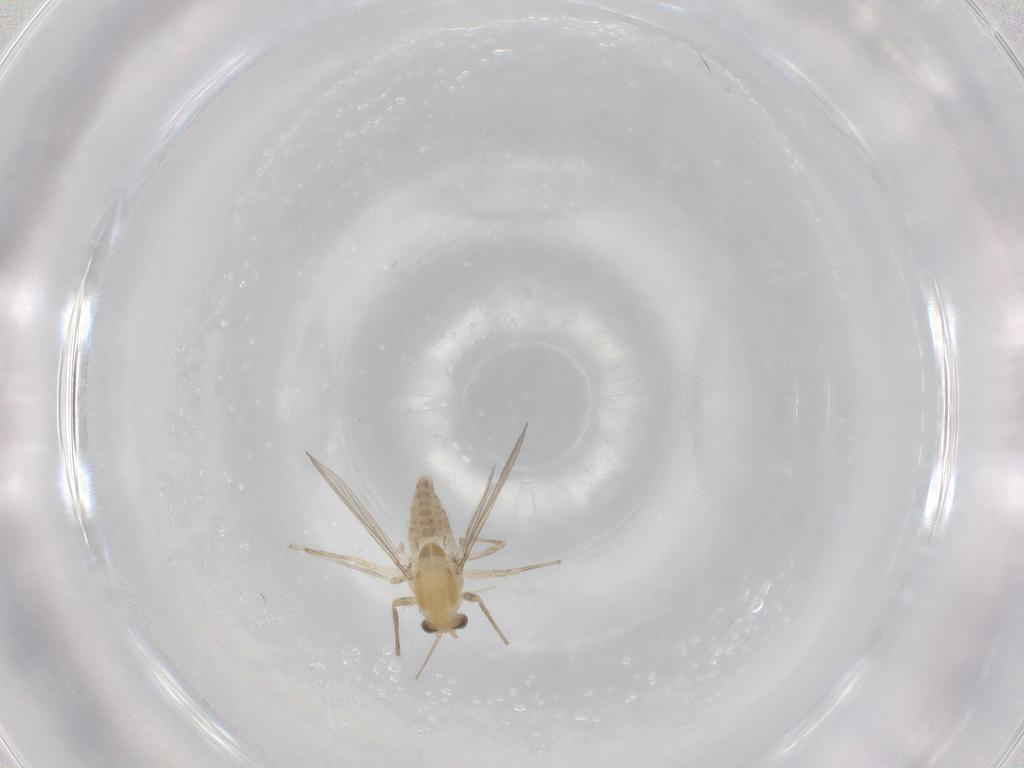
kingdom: Animalia
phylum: Arthropoda
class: Insecta
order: Diptera
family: Chironomidae
